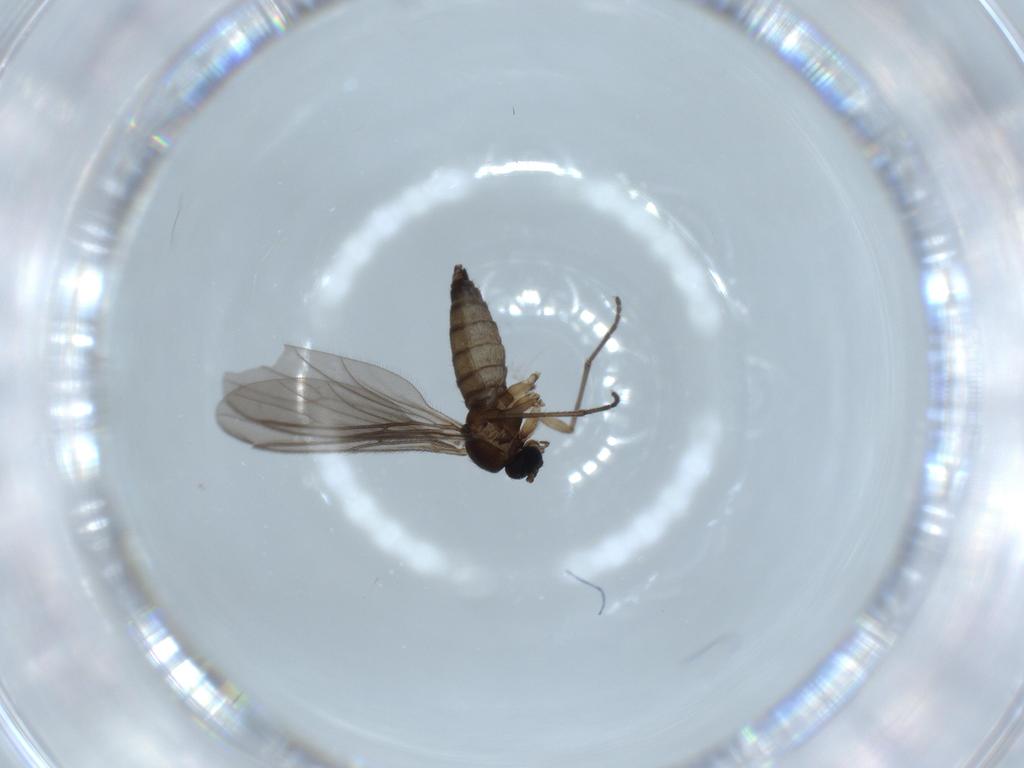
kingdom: Animalia
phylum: Arthropoda
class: Insecta
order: Diptera
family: Sciaridae
